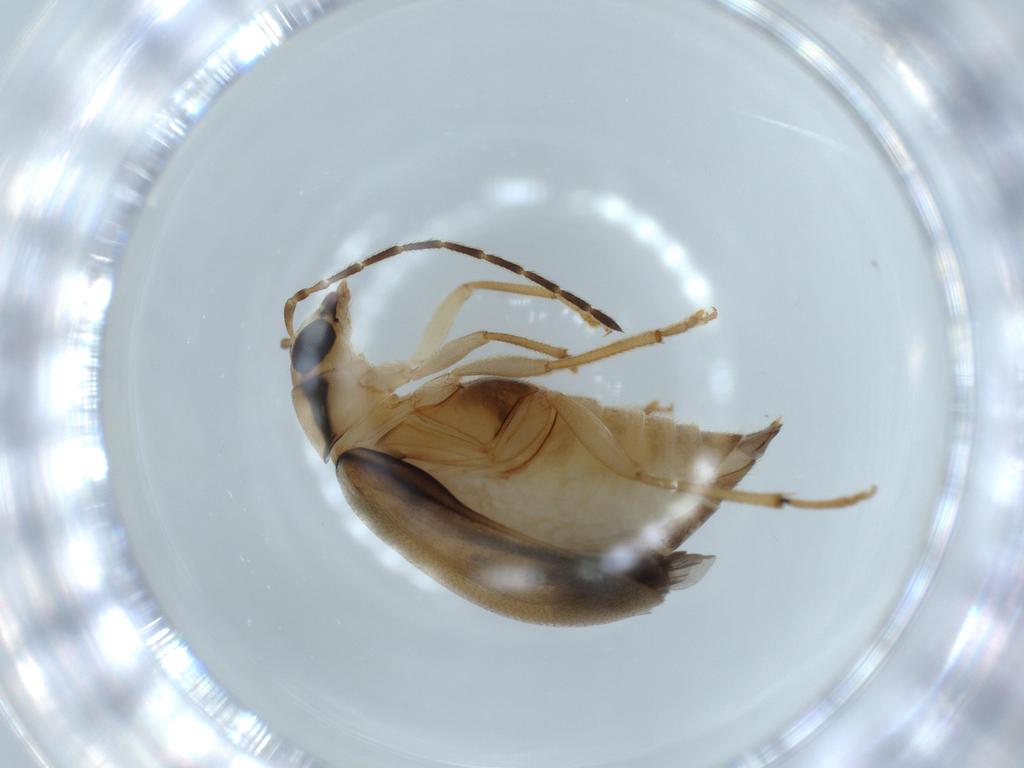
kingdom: Animalia
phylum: Arthropoda
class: Insecta
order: Coleoptera
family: Chrysomelidae
